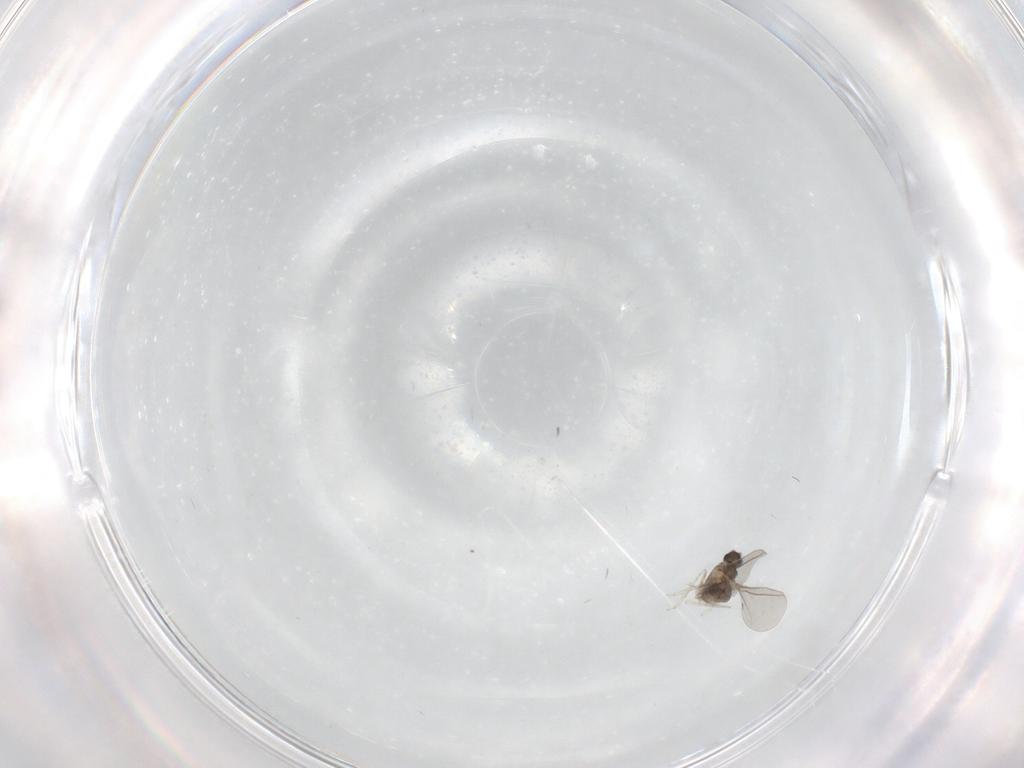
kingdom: Animalia
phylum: Arthropoda
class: Insecta
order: Diptera
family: Cecidomyiidae
